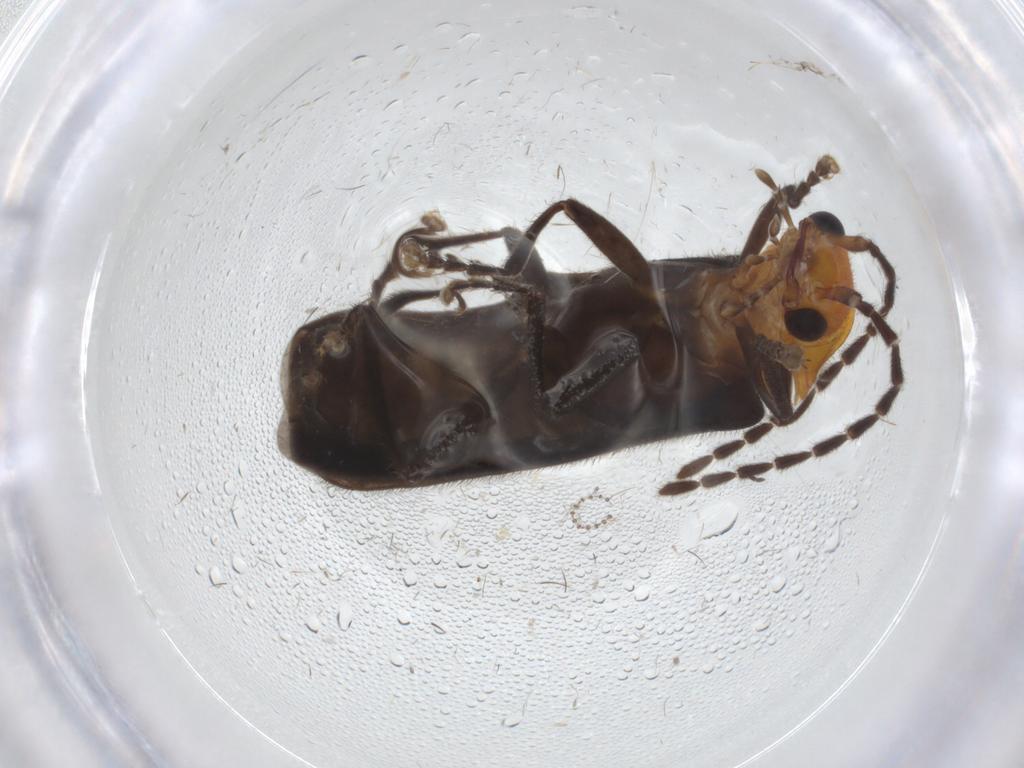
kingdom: Animalia
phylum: Arthropoda
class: Insecta
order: Coleoptera
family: Cantharidae
